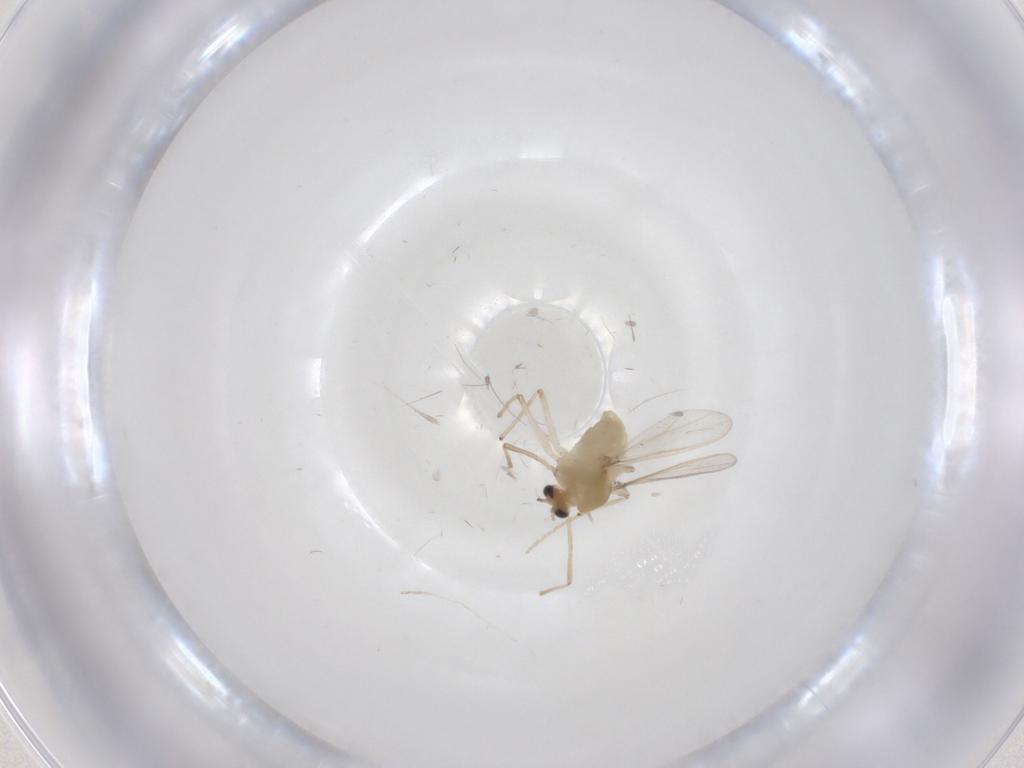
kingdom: Animalia
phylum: Arthropoda
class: Insecta
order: Diptera
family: Chironomidae
